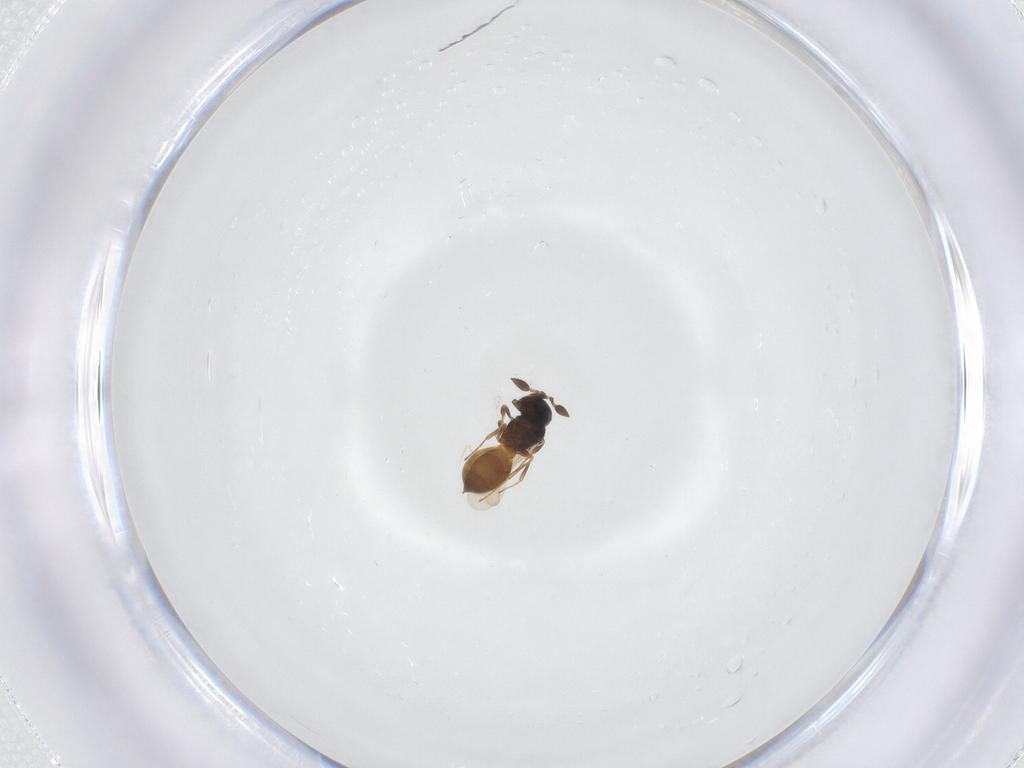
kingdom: Animalia
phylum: Arthropoda
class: Insecta
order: Hymenoptera
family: Scelionidae
